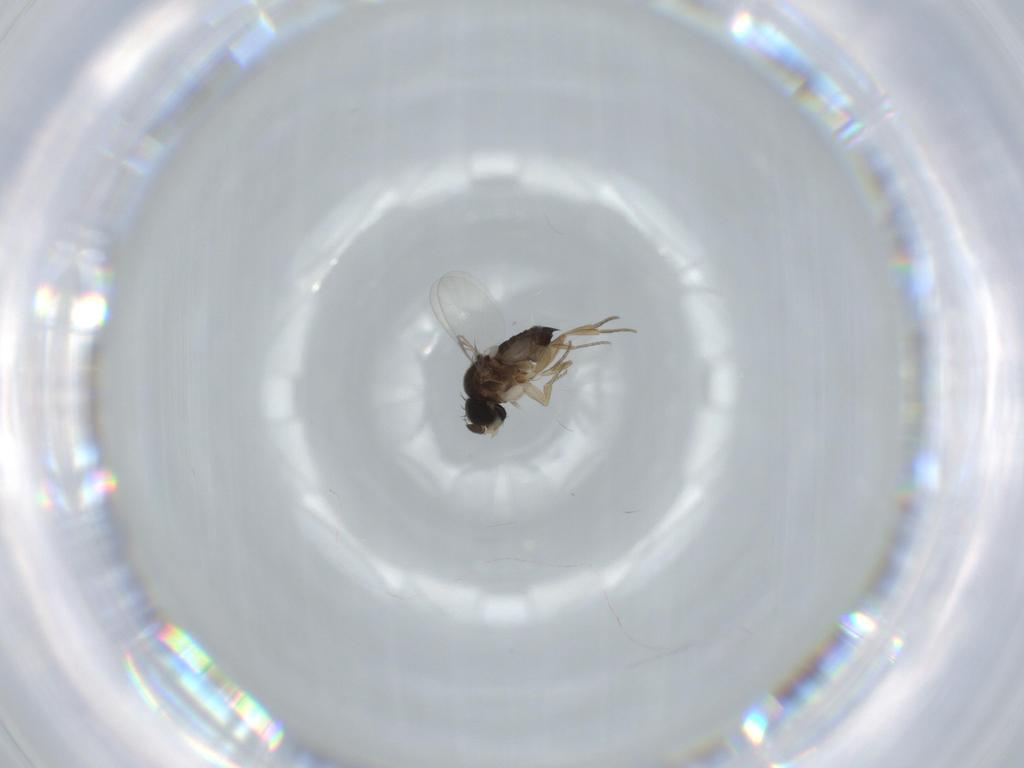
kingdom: Animalia
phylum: Arthropoda
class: Insecta
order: Diptera
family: Phoridae
